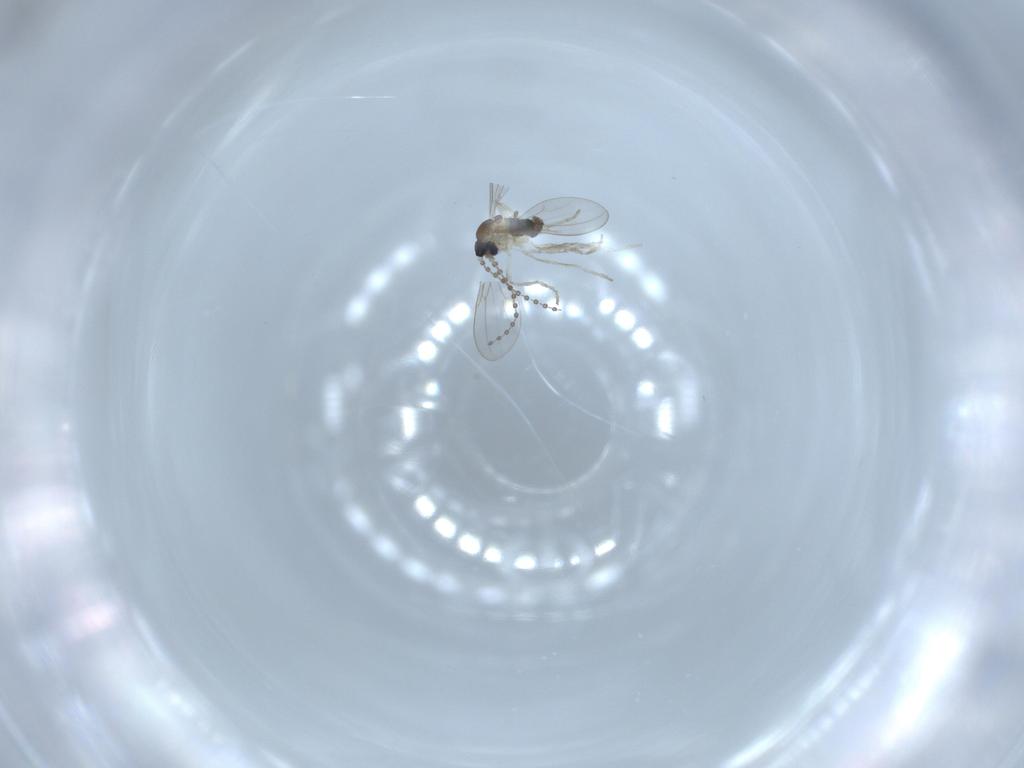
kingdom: Animalia
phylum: Arthropoda
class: Insecta
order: Diptera
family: Cecidomyiidae
